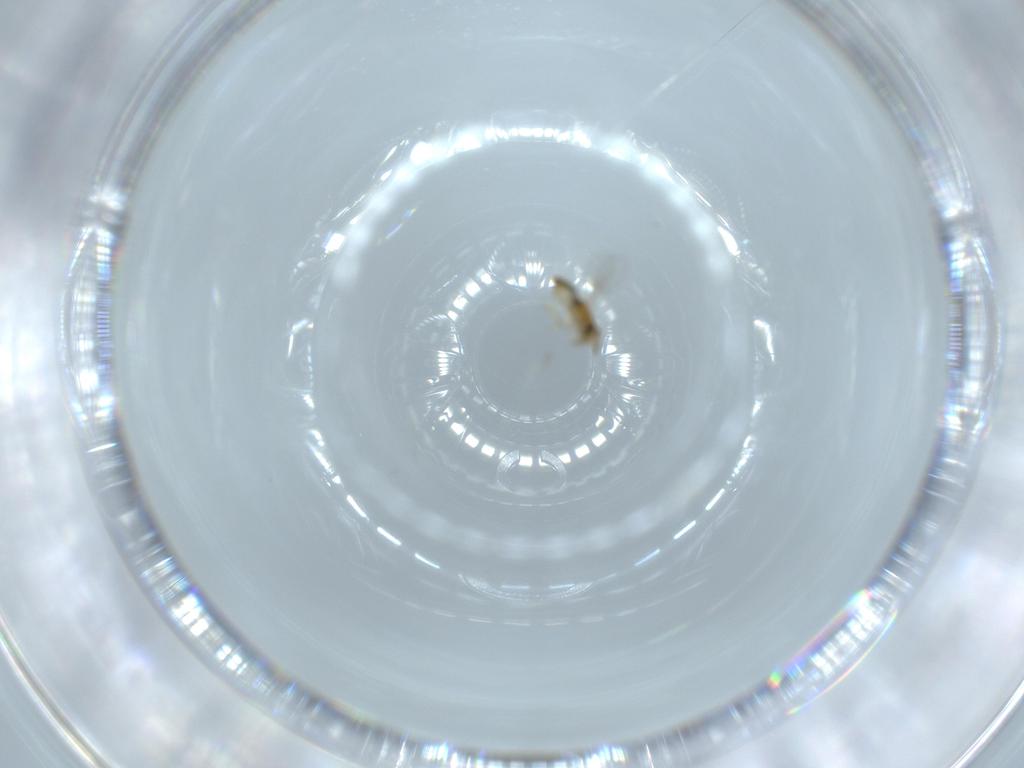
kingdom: Animalia
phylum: Arthropoda
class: Insecta
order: Hymenoptera
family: Encyrtidae
